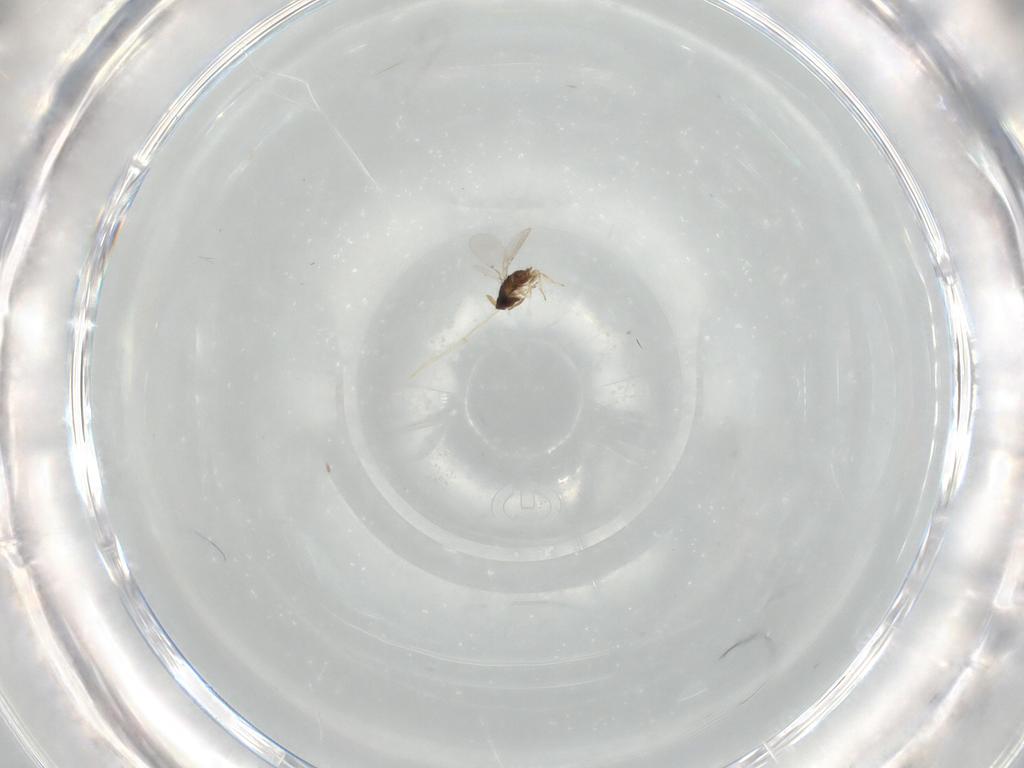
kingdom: Animalia
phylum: Arthropoda
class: Insecta
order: Hymenoptera
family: Encyrtidae
